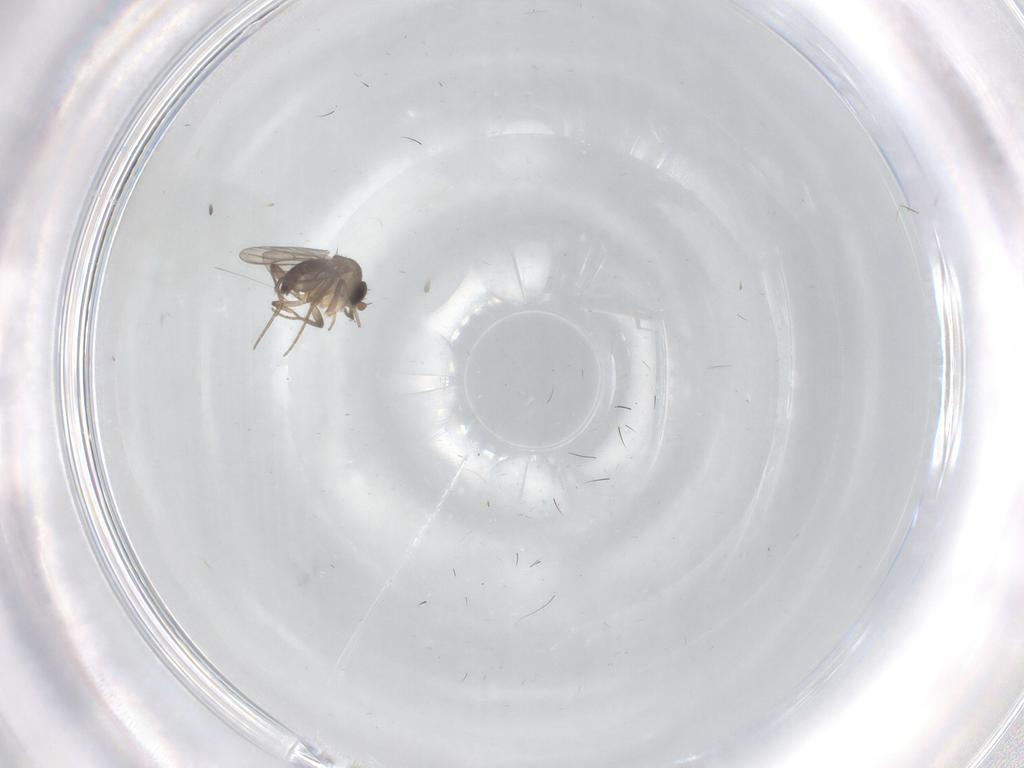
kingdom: Animalia
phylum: Arthropoda
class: Insecta
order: Diptera
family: Phoridae
